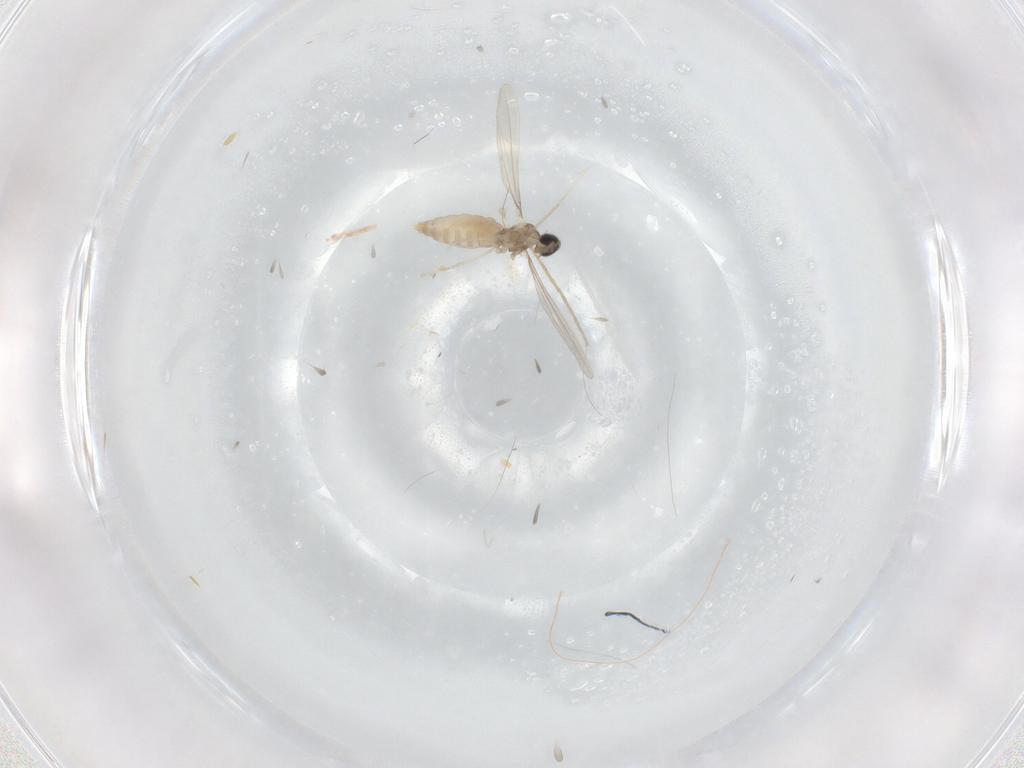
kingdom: Animalia
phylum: Arthropoda
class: Insecta
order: Diptera
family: Chironomidae
